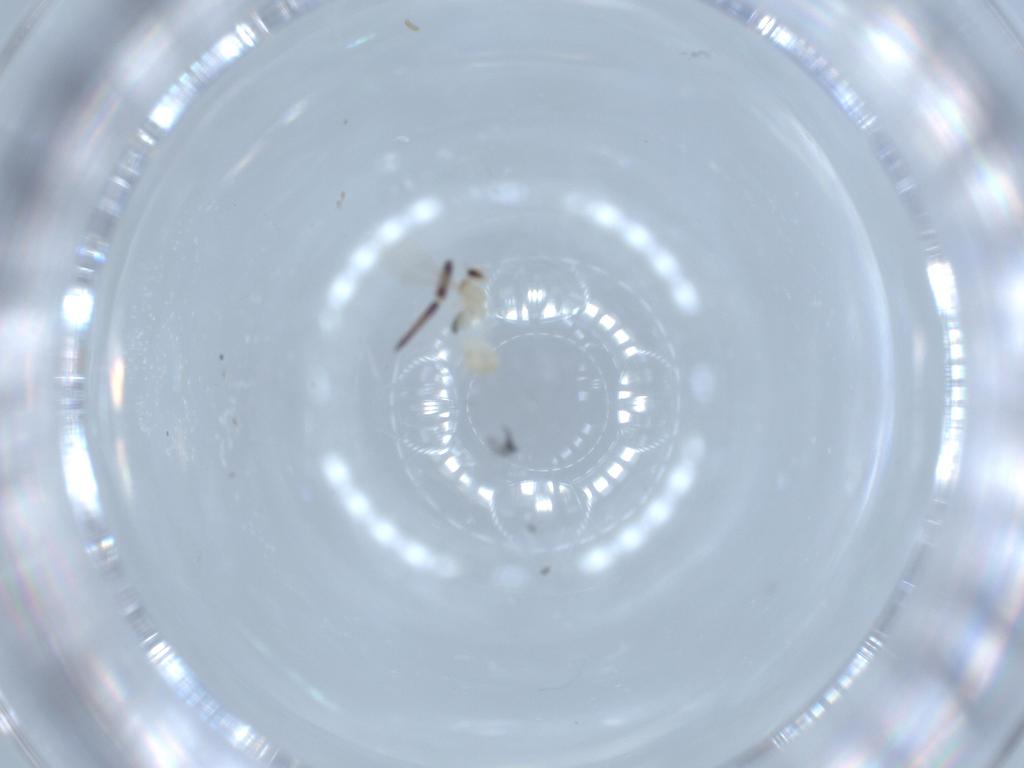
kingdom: Animalia
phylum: Arthropoda
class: Insecta
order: Diptera
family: Cecidomyiidae
